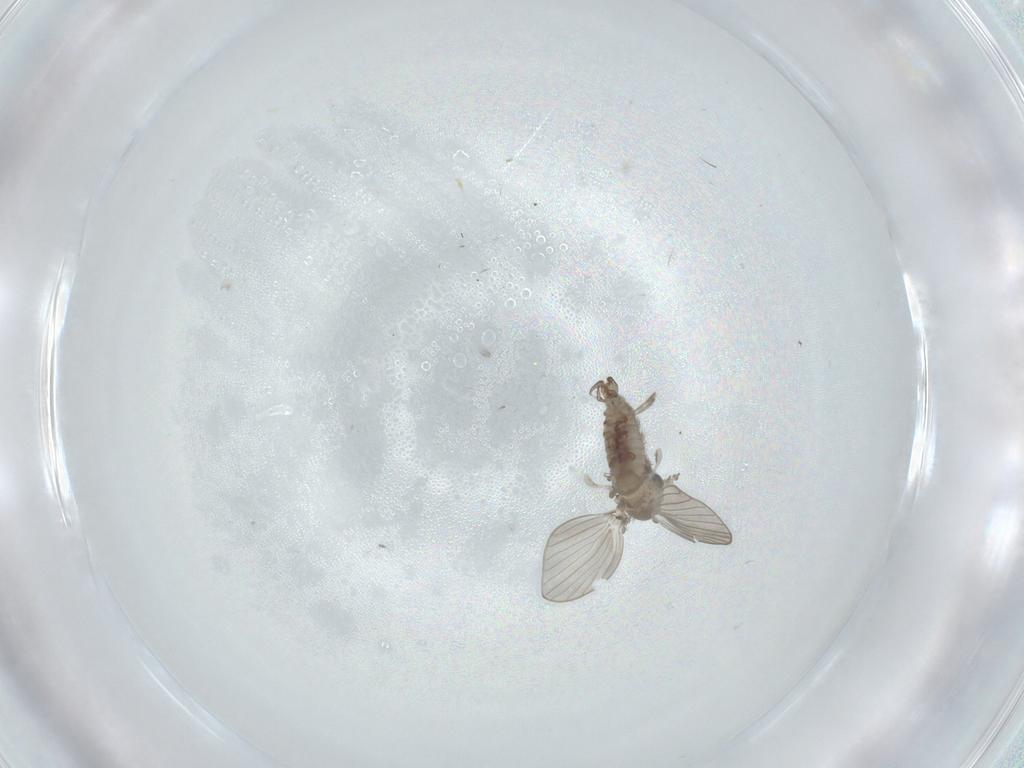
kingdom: Animalia
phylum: Arthropoda
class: Insecta
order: Diptera
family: Psychodidae
